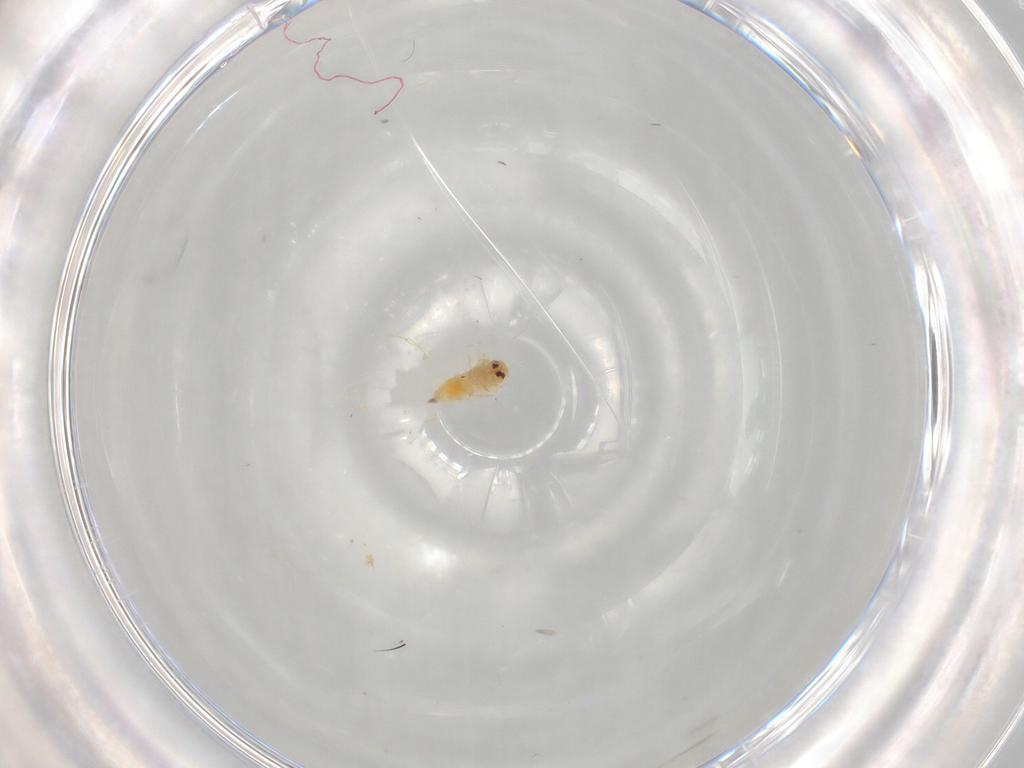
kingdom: Animalia
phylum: Arthropoda
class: Insecta
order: Hemiptera
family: Aleyrodidae
